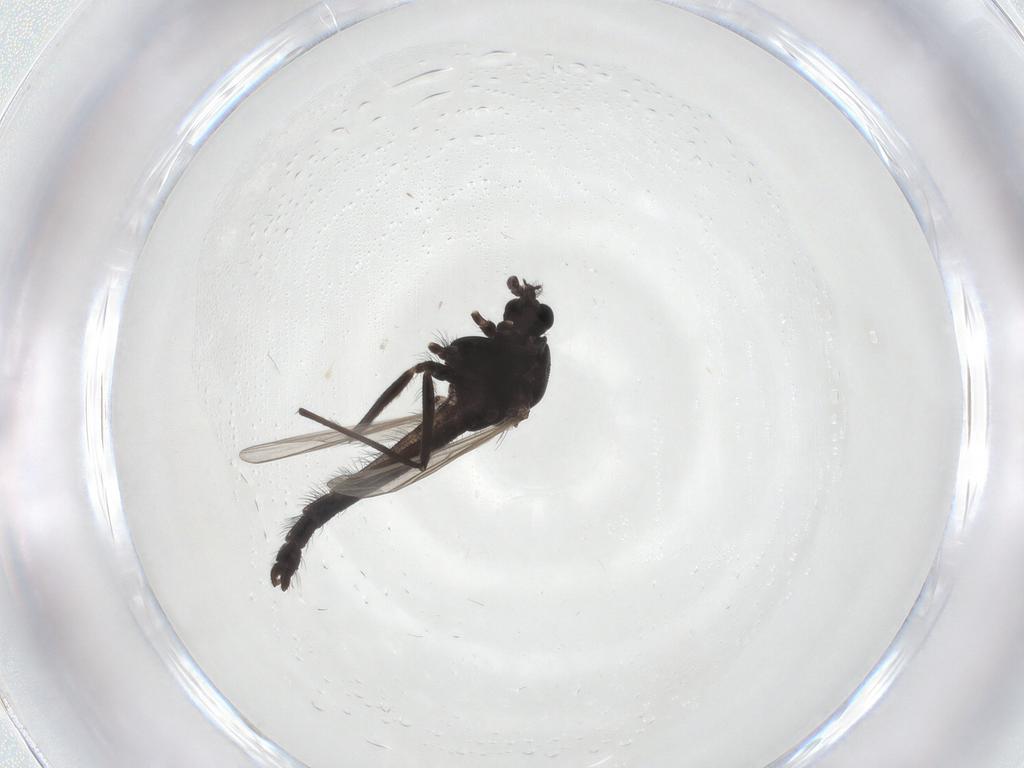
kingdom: Animalia
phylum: Arthropoda
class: Insecta
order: Diptera
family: Chironomidae
